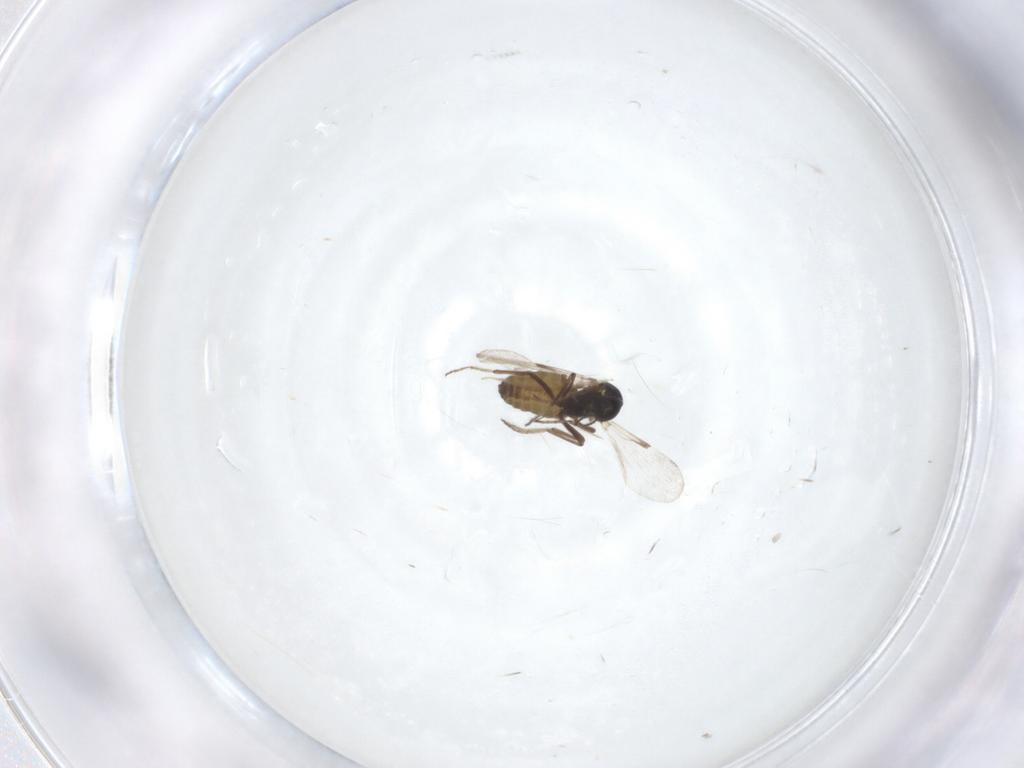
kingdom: Animalia
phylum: Arthropoda
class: Insecta
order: Diptera
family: Ceratopogonidae
